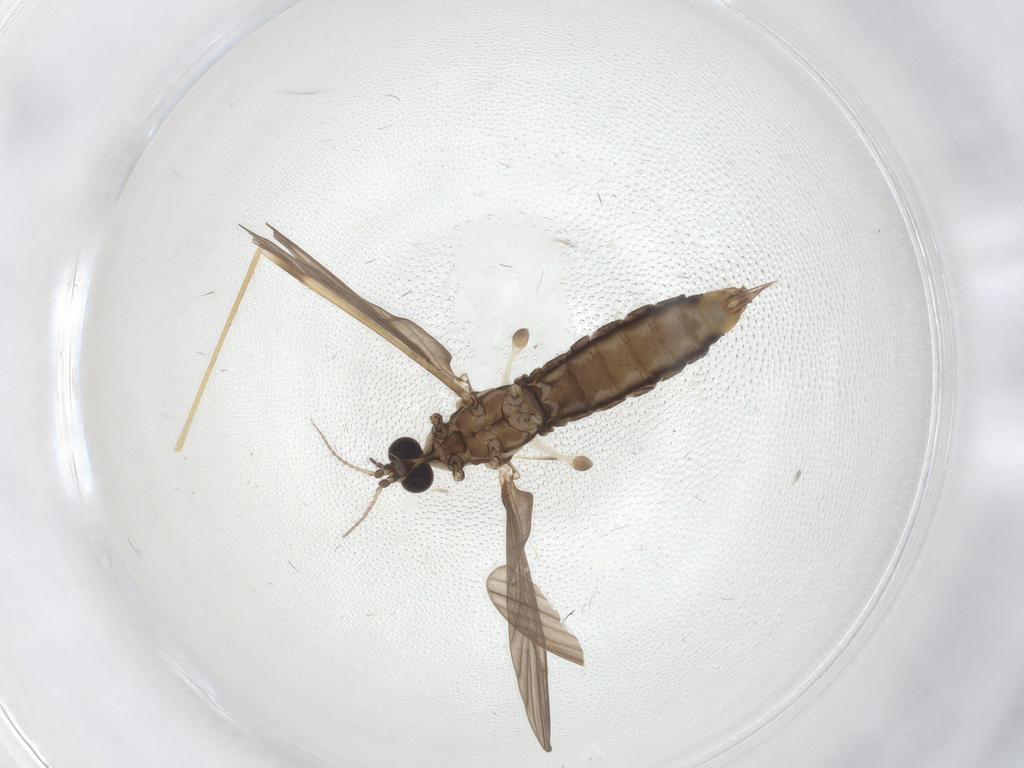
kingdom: Animalia
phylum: Arthropoda
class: Insecta
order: Diptera
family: Limoniidae
